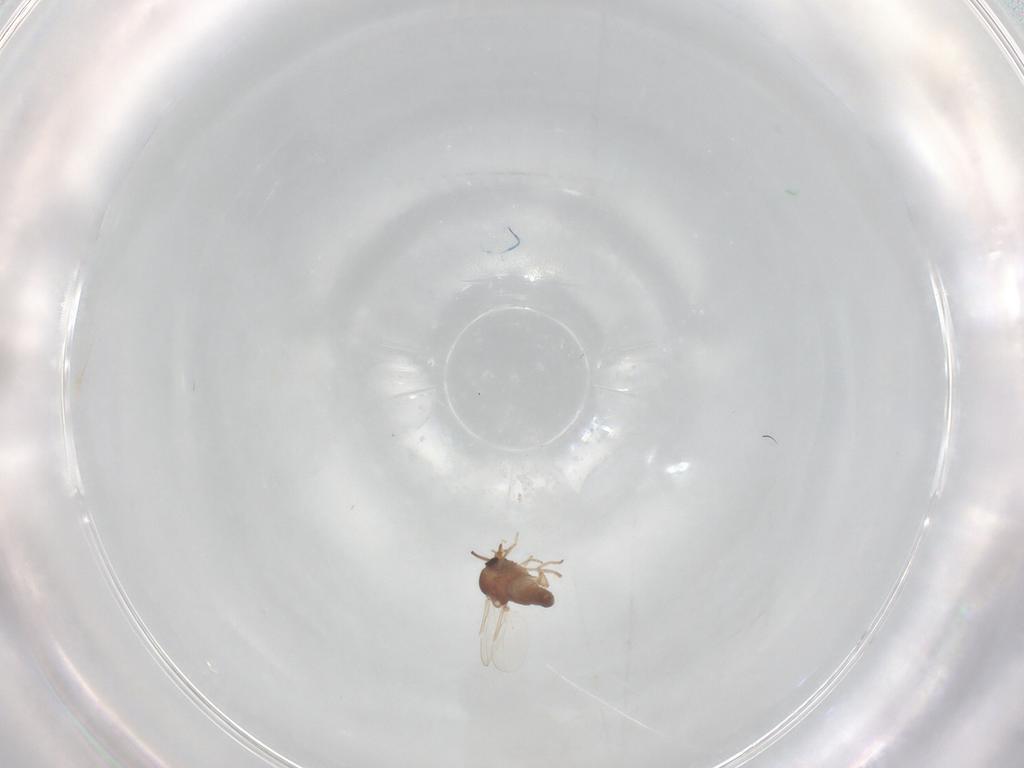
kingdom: Animalia
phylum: Arthropoda
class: Insecta
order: Diptera
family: Ceratopogonidae
